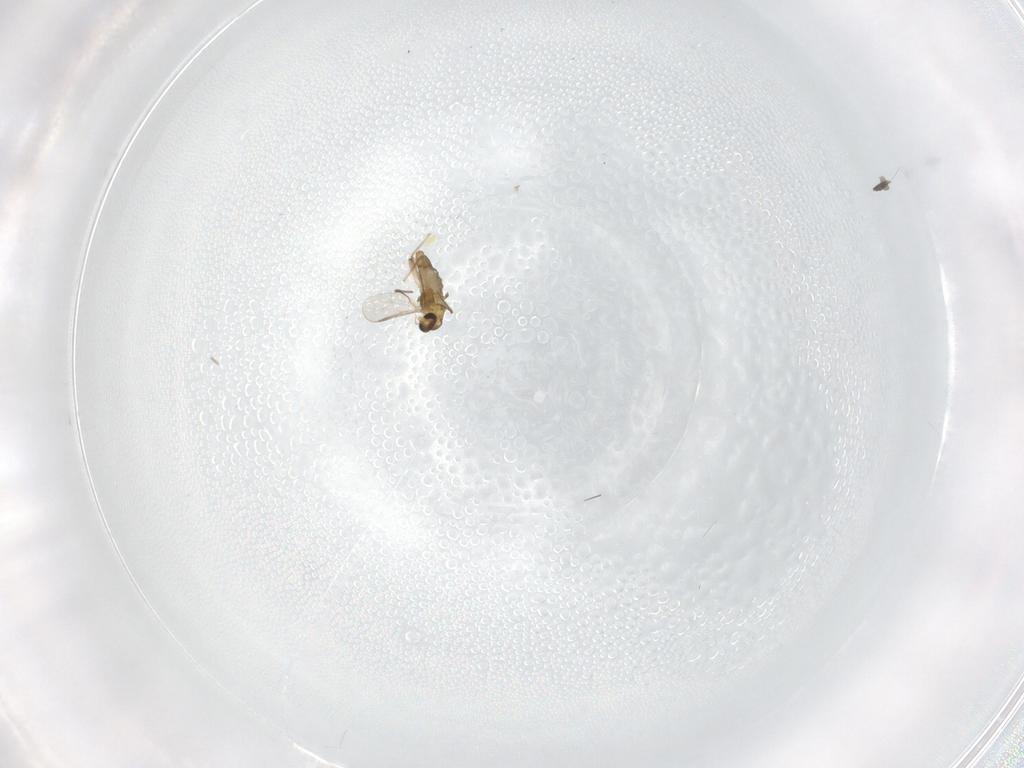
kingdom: Animalia
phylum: Arthropoda
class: Insecta
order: Diptera
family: Chironomidae
